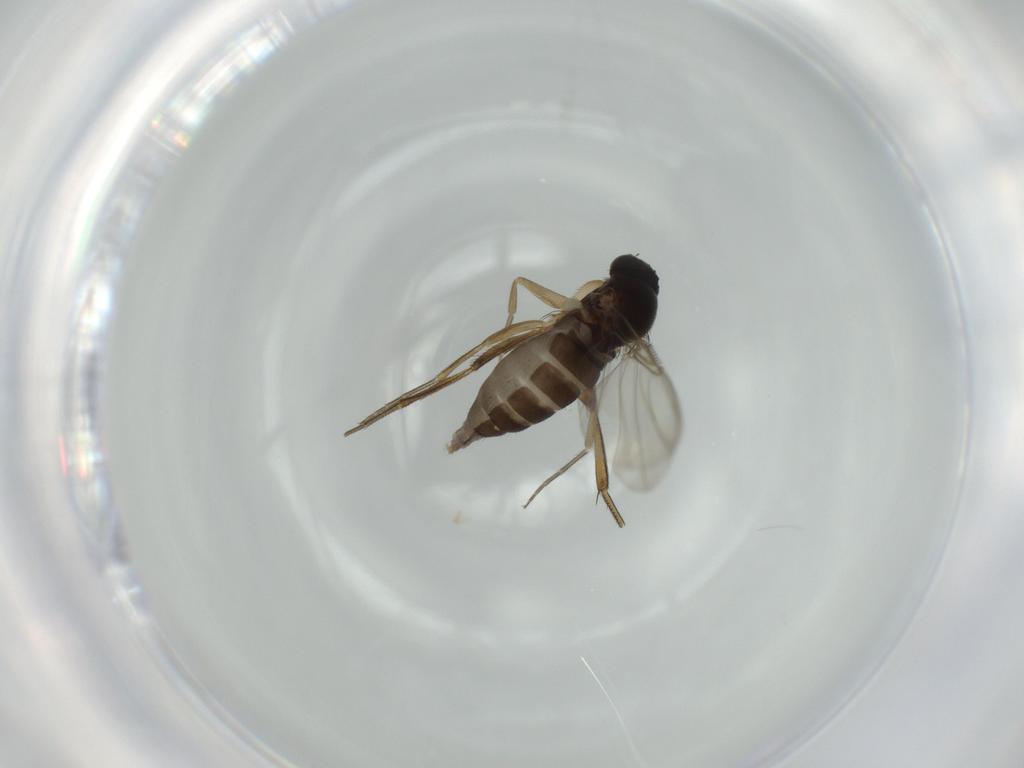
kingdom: Animalia
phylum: Arthropoda
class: Insecta
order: Diptera
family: Phoridae
